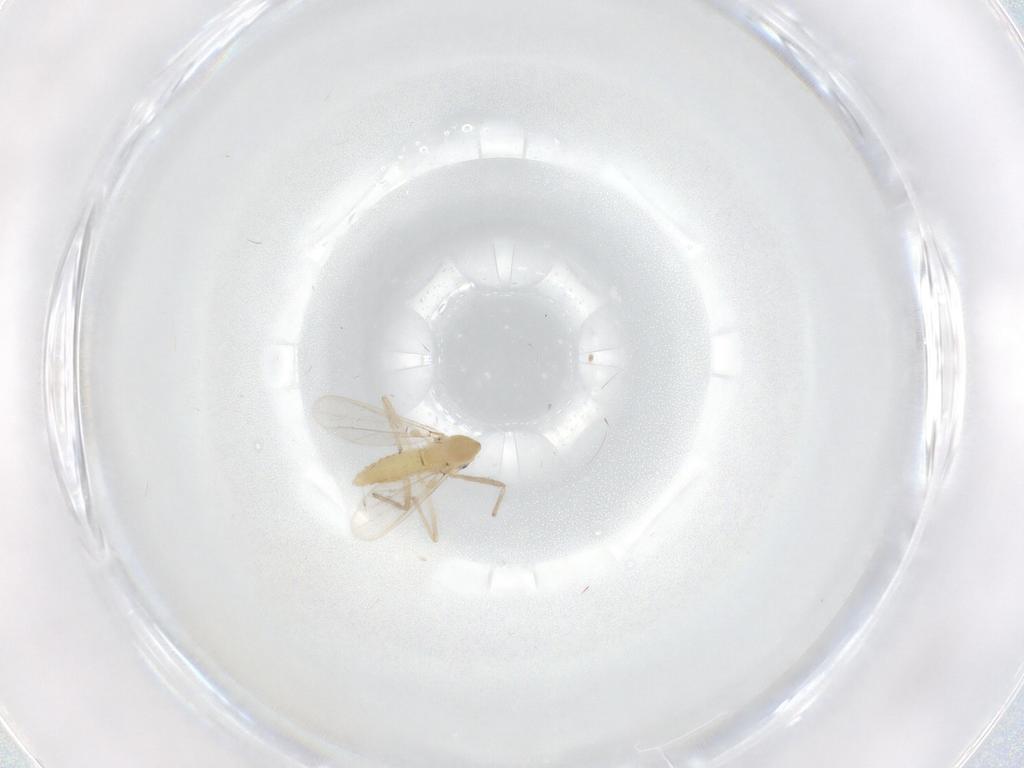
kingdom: Animalia
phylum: Arthropoda
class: Insecta
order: Diptera
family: Chironomidae
